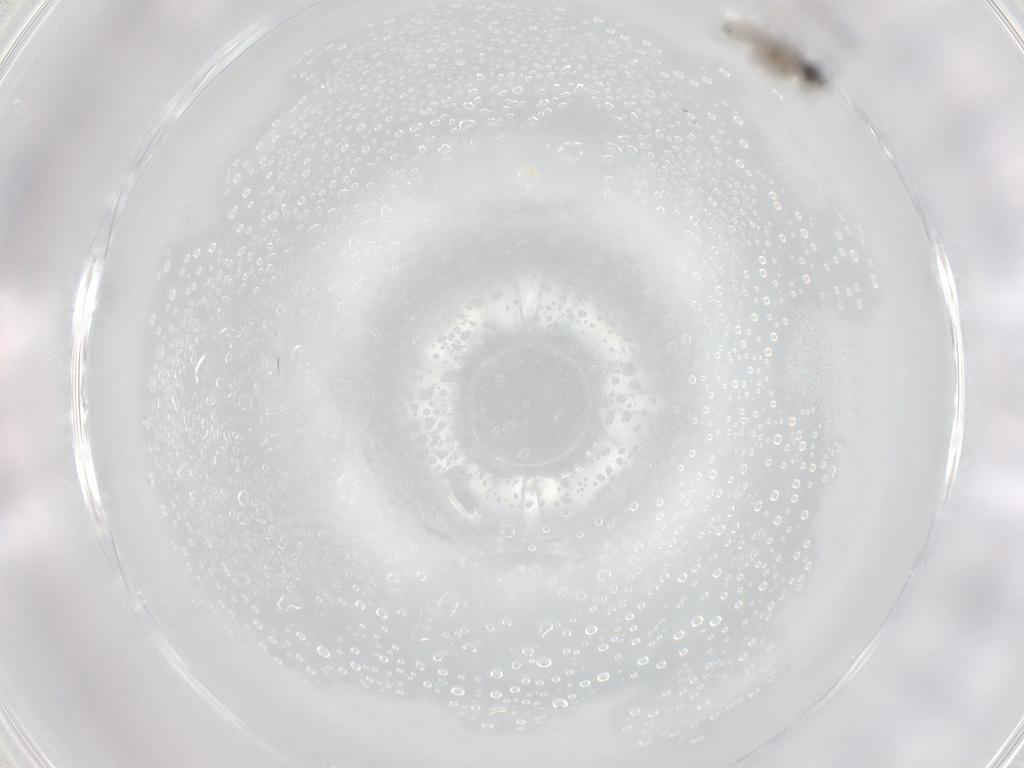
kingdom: Animalia
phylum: Arthropoda
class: Insecta
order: Diptera
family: Cecidomyiidae
